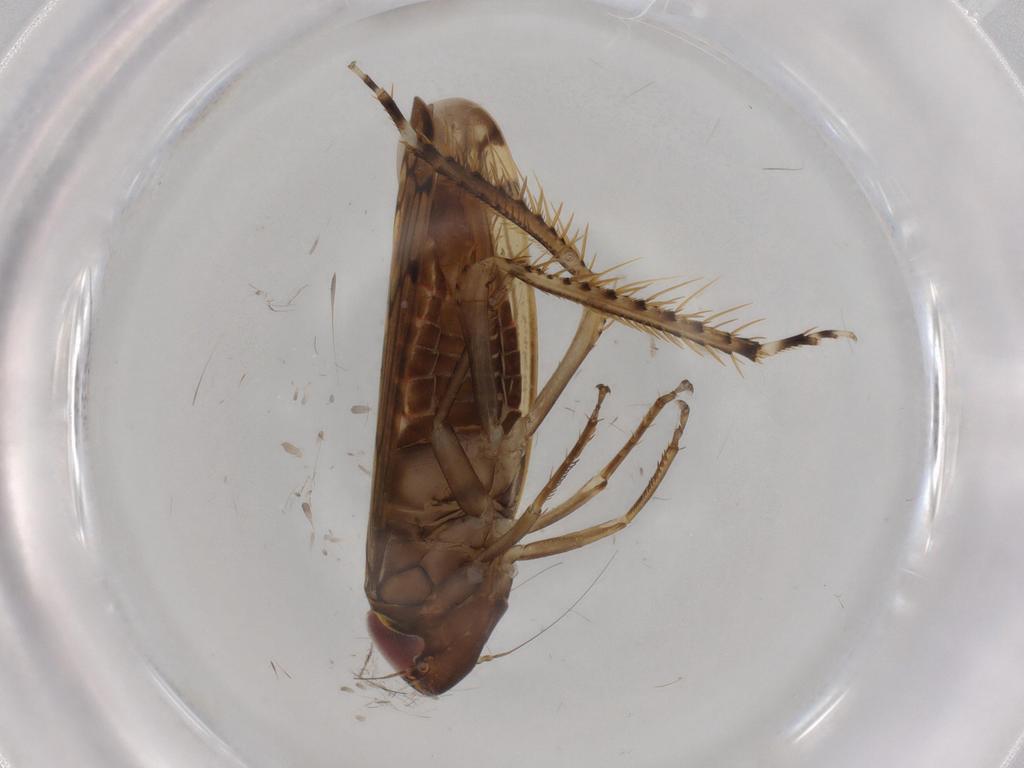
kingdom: Animalia
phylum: Arthropoda
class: Insecta
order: Hemiptera
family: Cicadellidae
